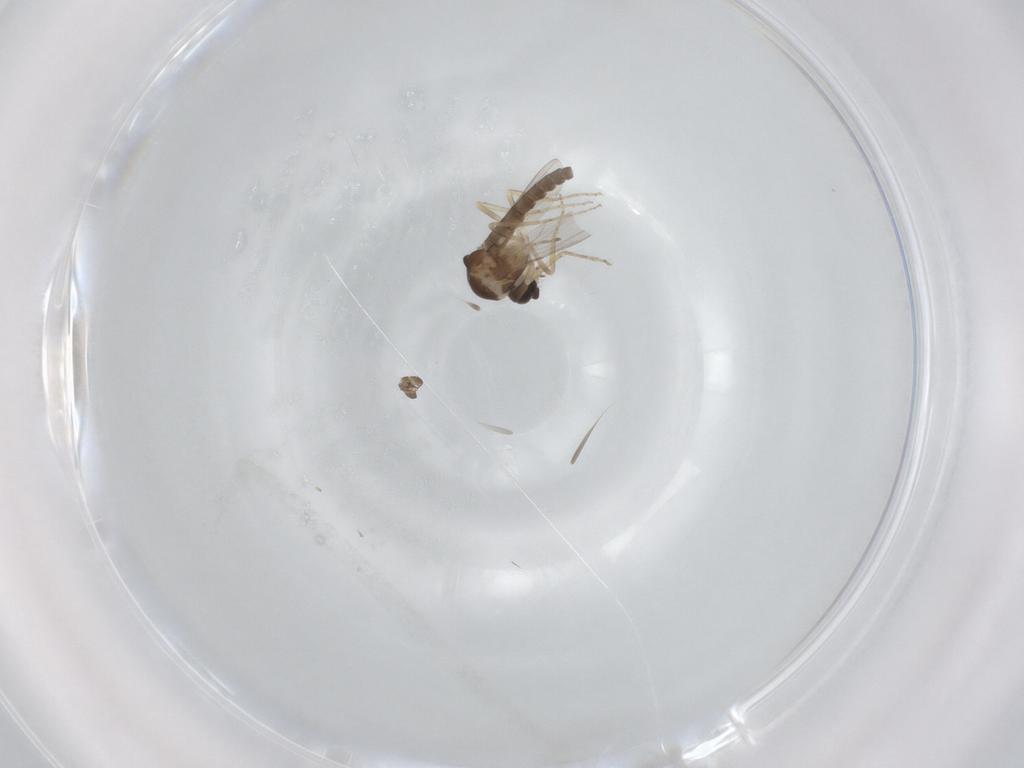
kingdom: Animalia
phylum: Arthropoda
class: Insecta
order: Diptera
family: Ceratopogonidae
